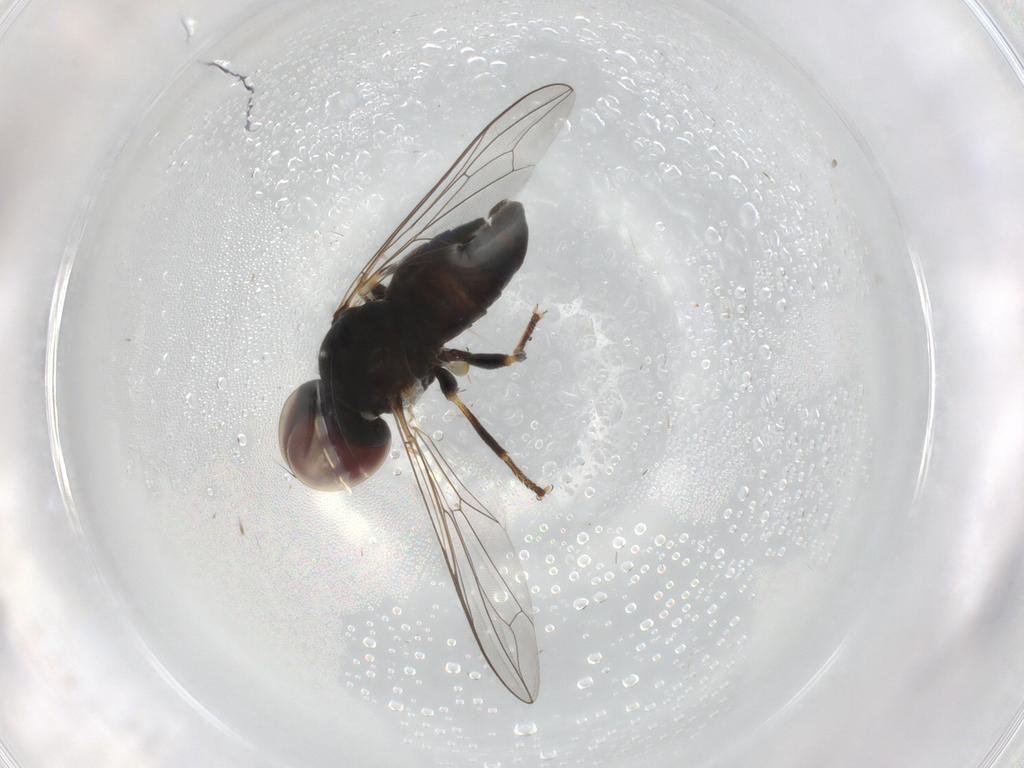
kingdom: Animalia
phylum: Arthropoda
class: Insecta
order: Diptera
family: Pipunculidae
